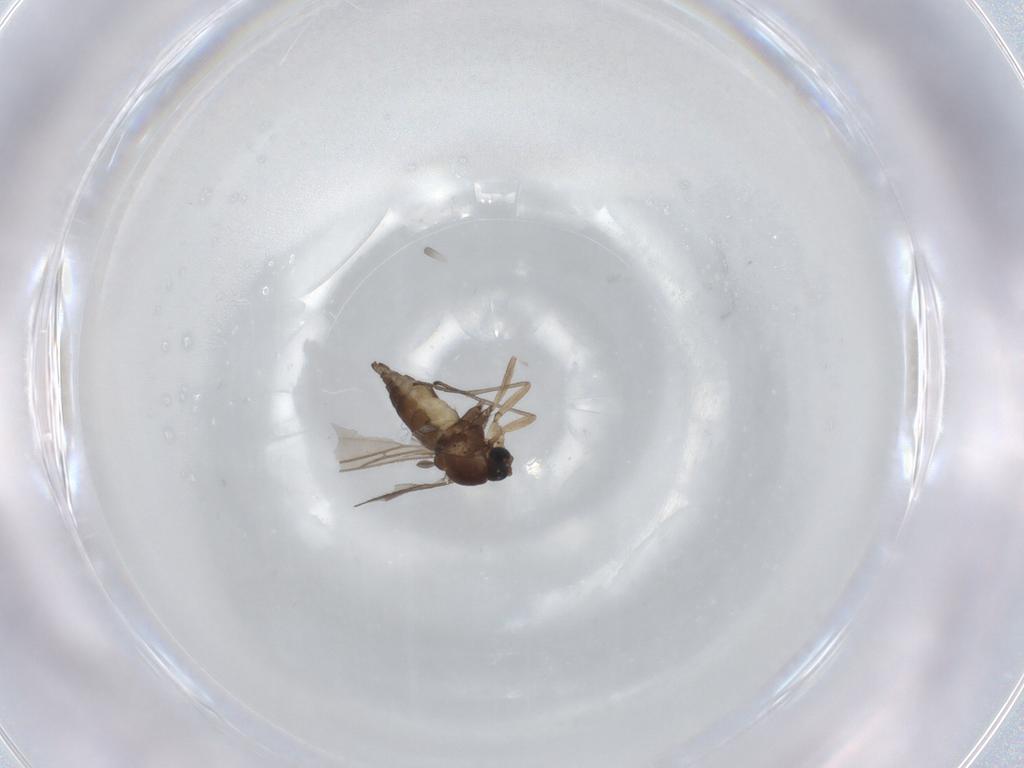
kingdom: Animalia
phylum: Arthropoda
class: Insecta
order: Diptera
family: Sciaridae
